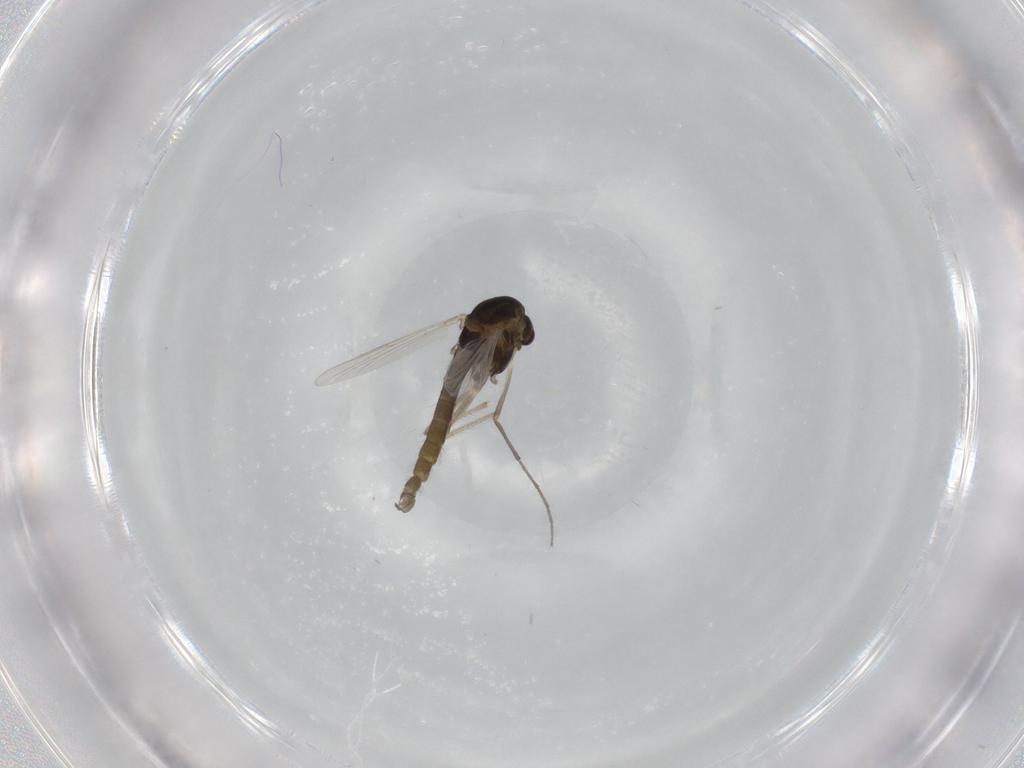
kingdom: Animalia
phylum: Arthropoda
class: Insecta
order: Diptera
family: Chironomidae
